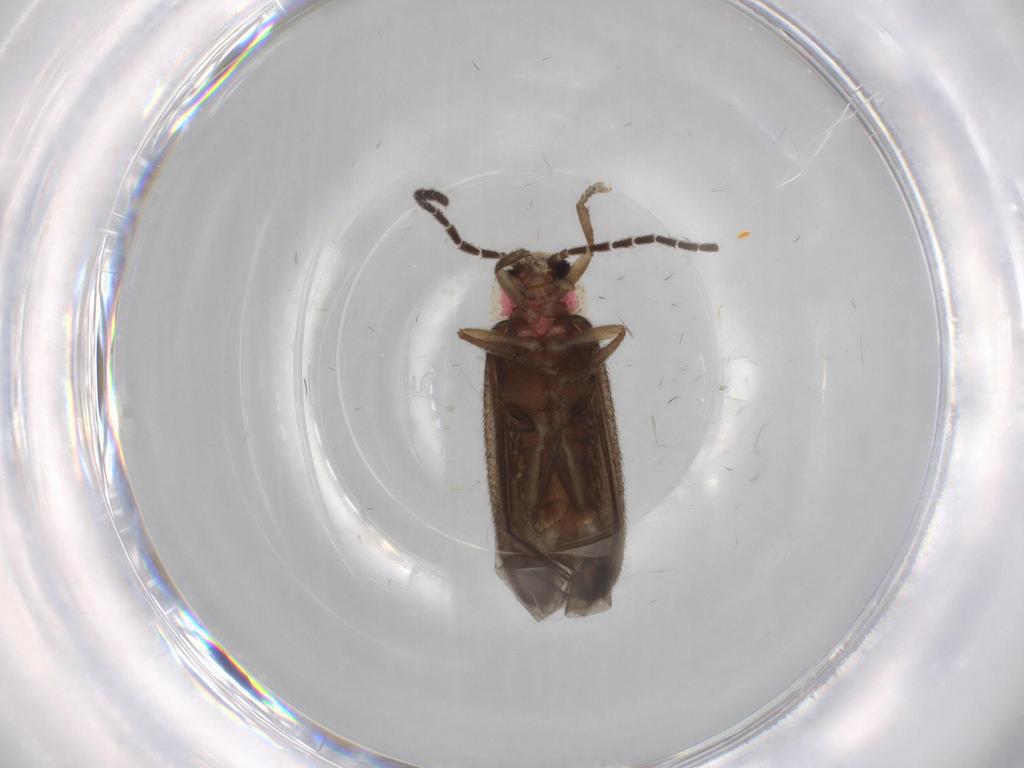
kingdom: Animalia
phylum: Arthropoda
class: Insecta
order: Coleoptera
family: Lampyridae
